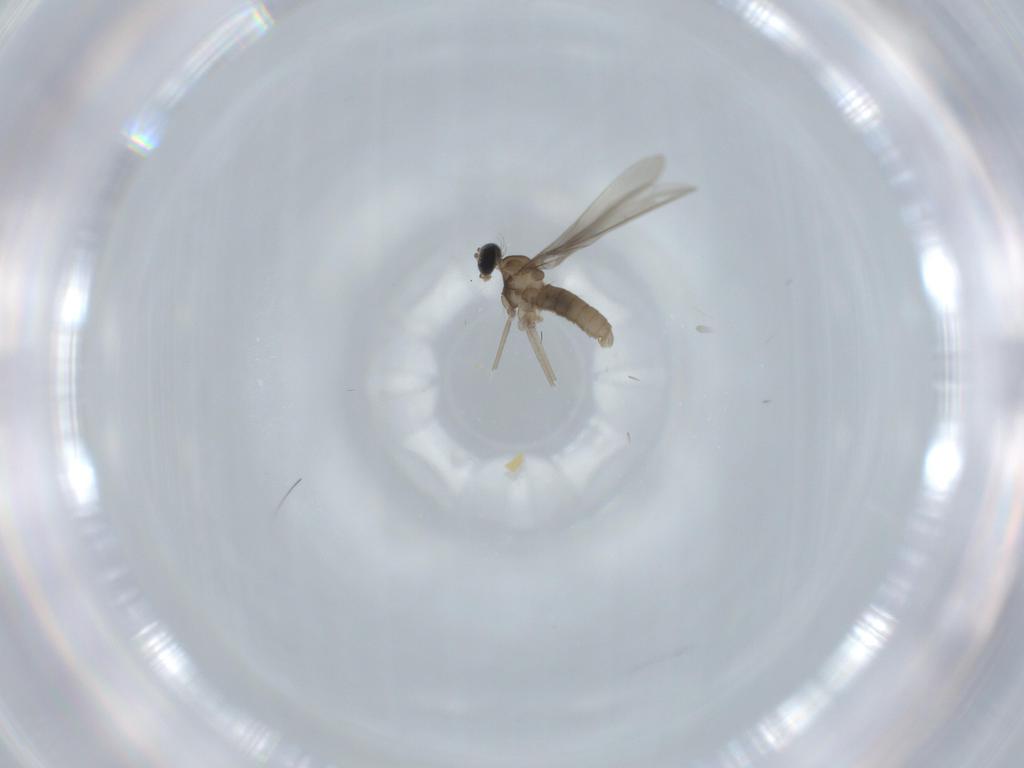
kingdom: Animalia
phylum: Arthropoda
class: Insecta
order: Diptera
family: Cecidomyiidae
